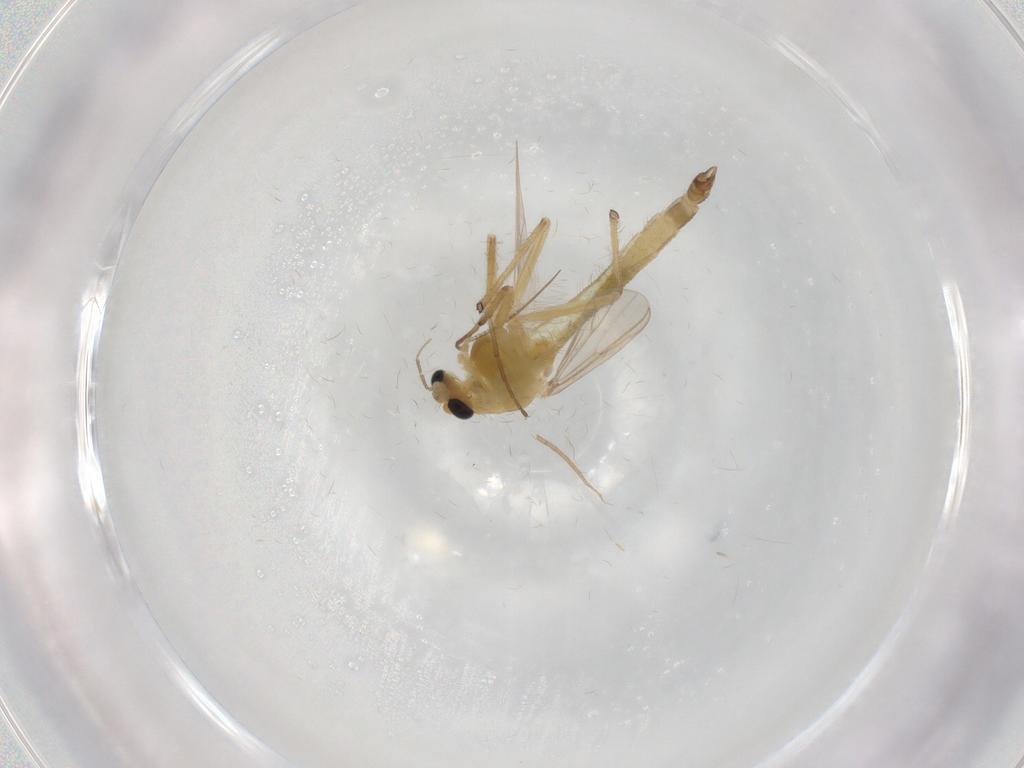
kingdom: Animalia
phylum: Arthropoda
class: Insecta
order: Diptera
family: Chironomidae
